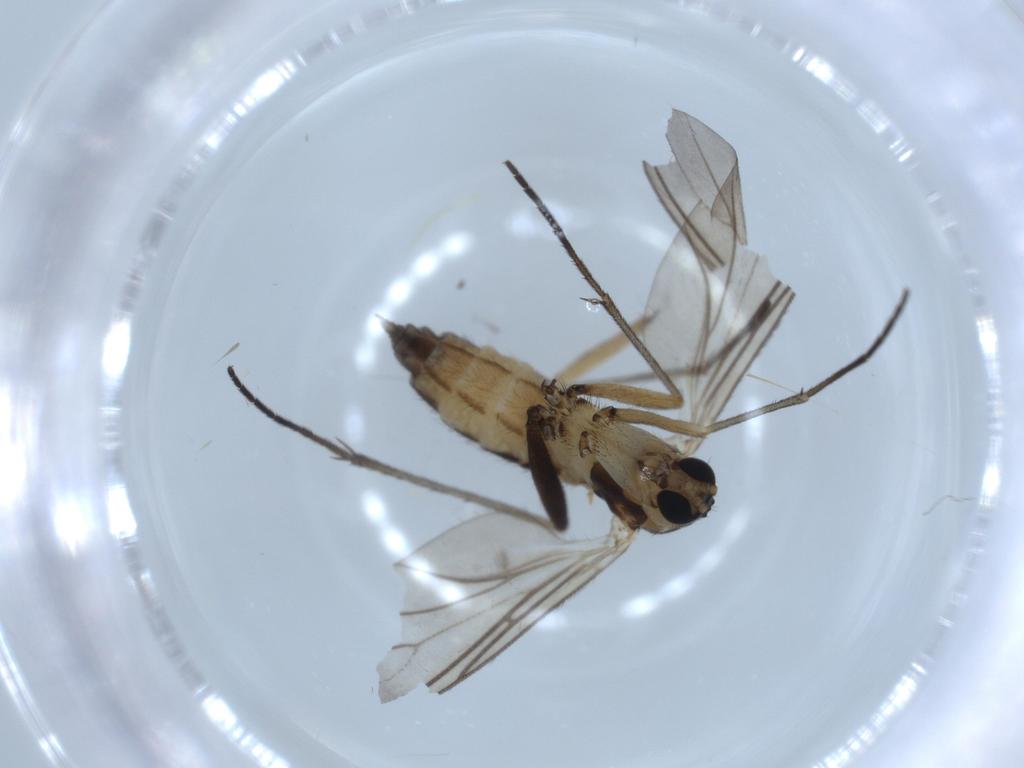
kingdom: Animalia
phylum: Arthropoda
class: Insecta
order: Diptera
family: Sciaridae
